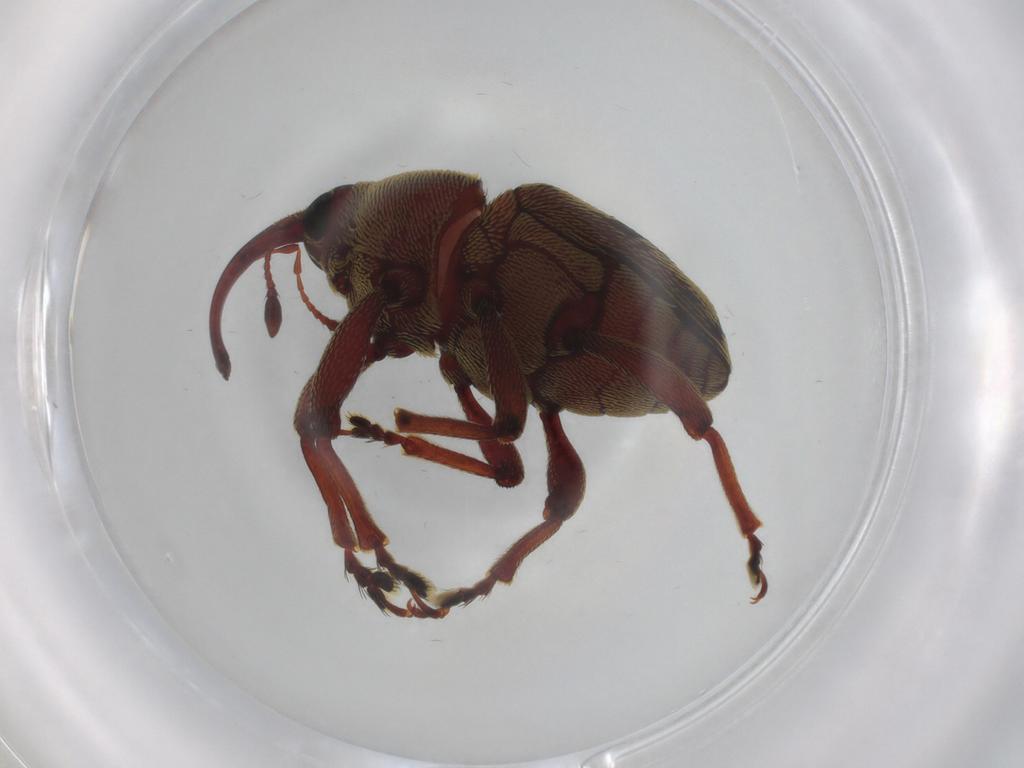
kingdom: Animalia
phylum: Arthropoda
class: Insecta
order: Coleoptera
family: Curculionidae
